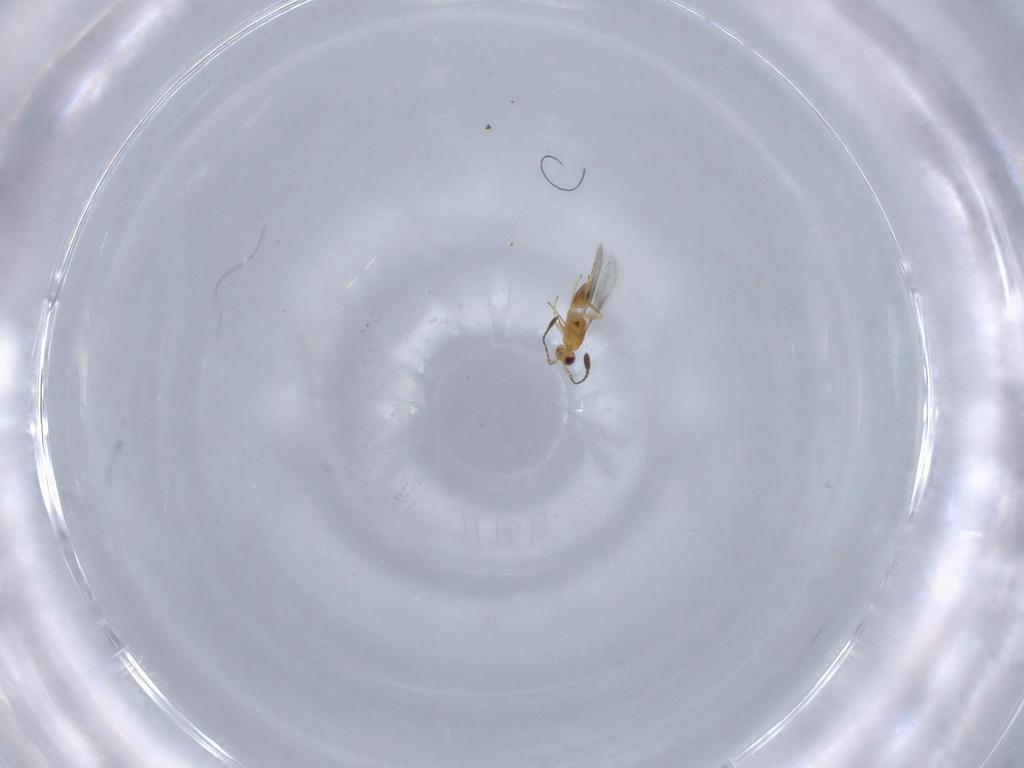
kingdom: Animalia
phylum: Arthropoda
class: Insecta
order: Hymenoptera
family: Mymaridae
